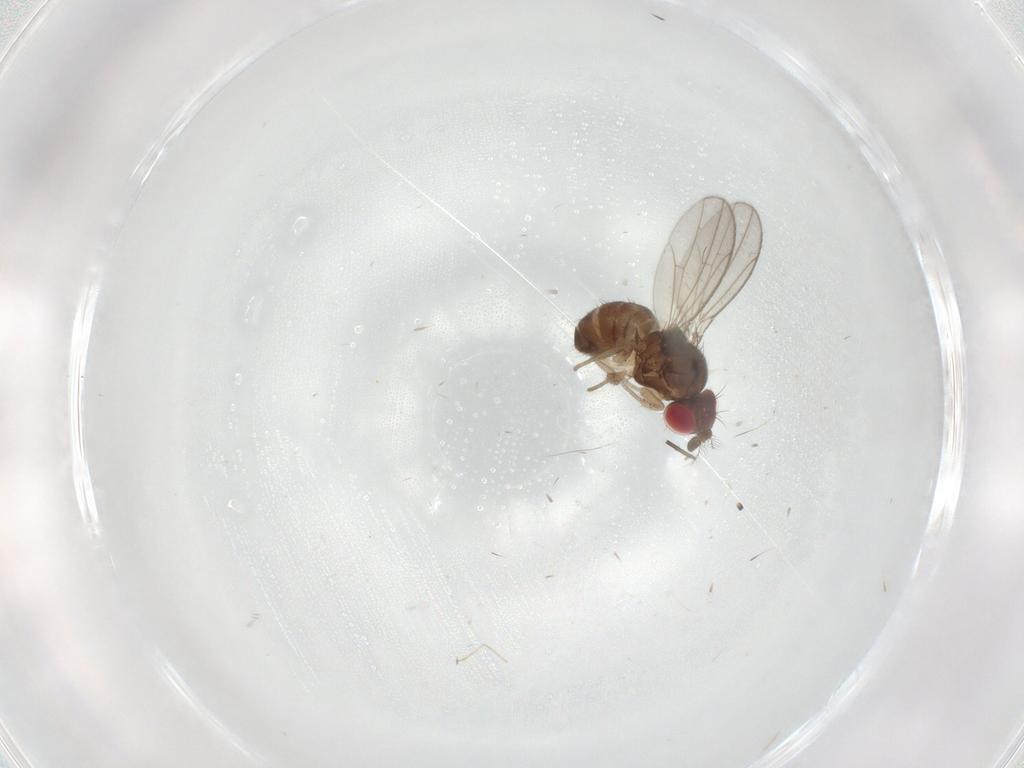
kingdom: Animalia
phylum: Arthropoda
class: Insecta
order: Diptera
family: Drosophilidae
